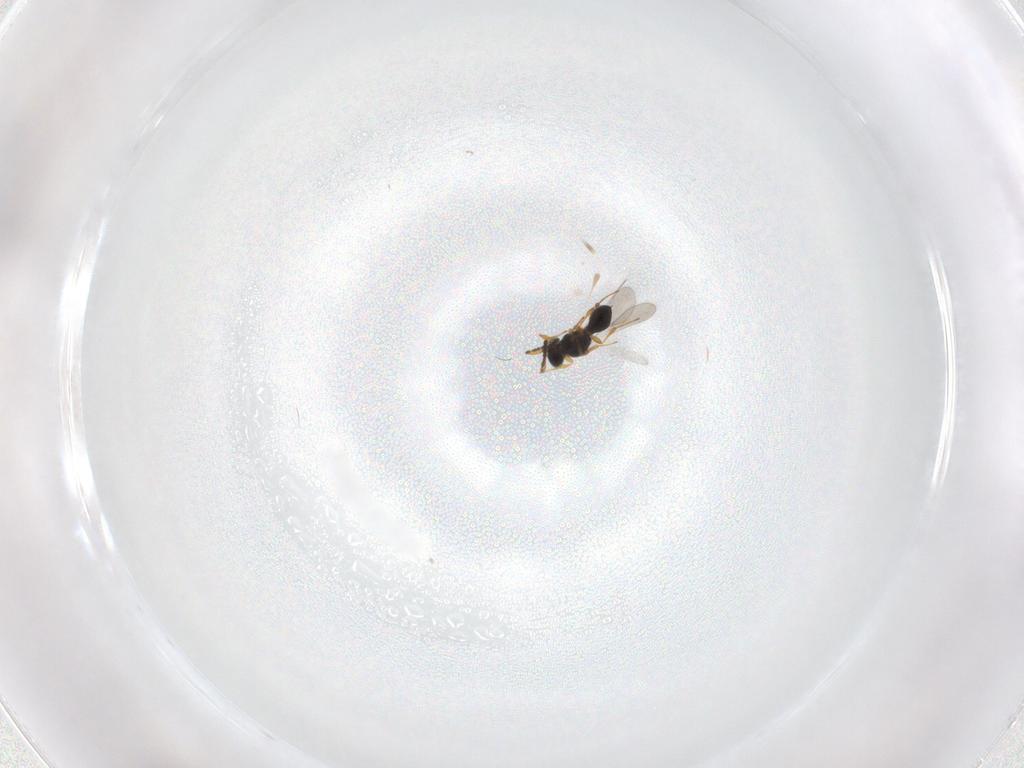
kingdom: Animalia
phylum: Arthropoda
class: Insecta
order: Hymenoptera
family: Platygastridae
